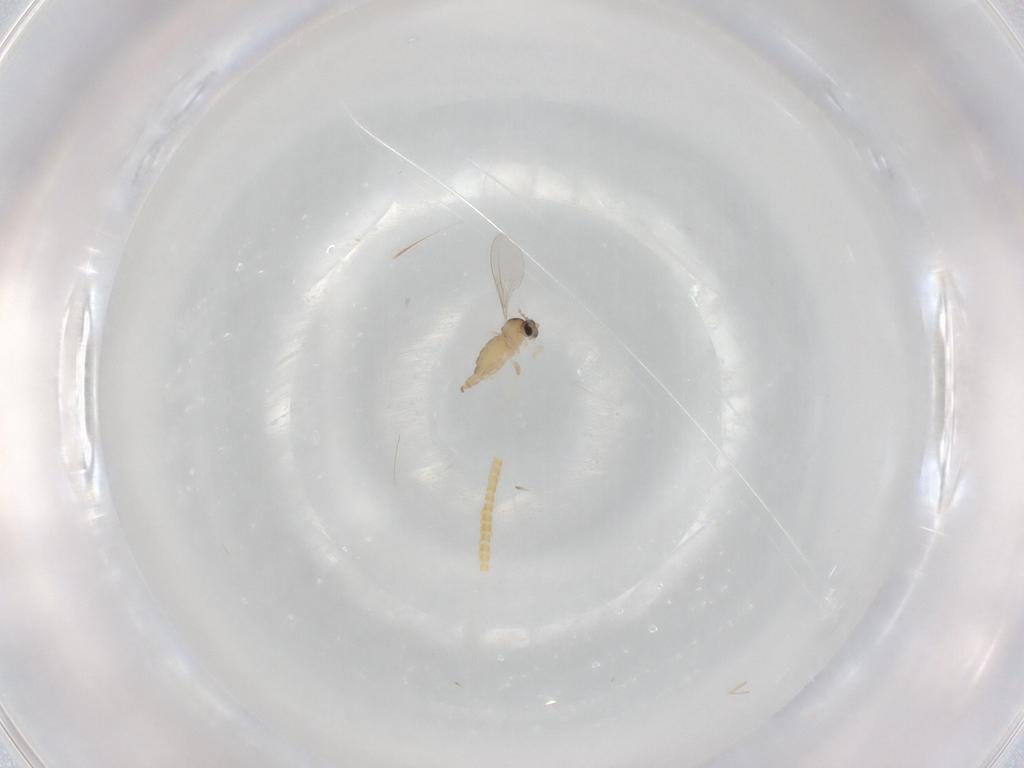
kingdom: Animalia
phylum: Arthropoda
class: Insecta
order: Diptera
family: Cecidomyiidae
